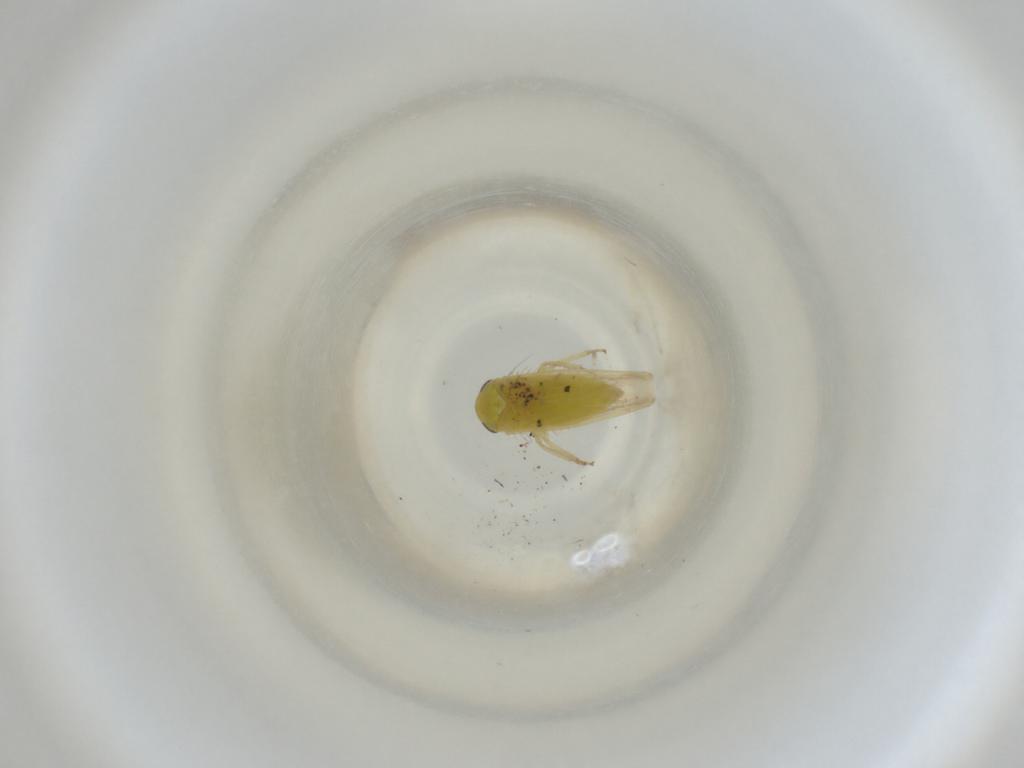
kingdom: Animalia
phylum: Arthropoda
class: Insecta
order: Hemiptera
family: Cicadellidae
